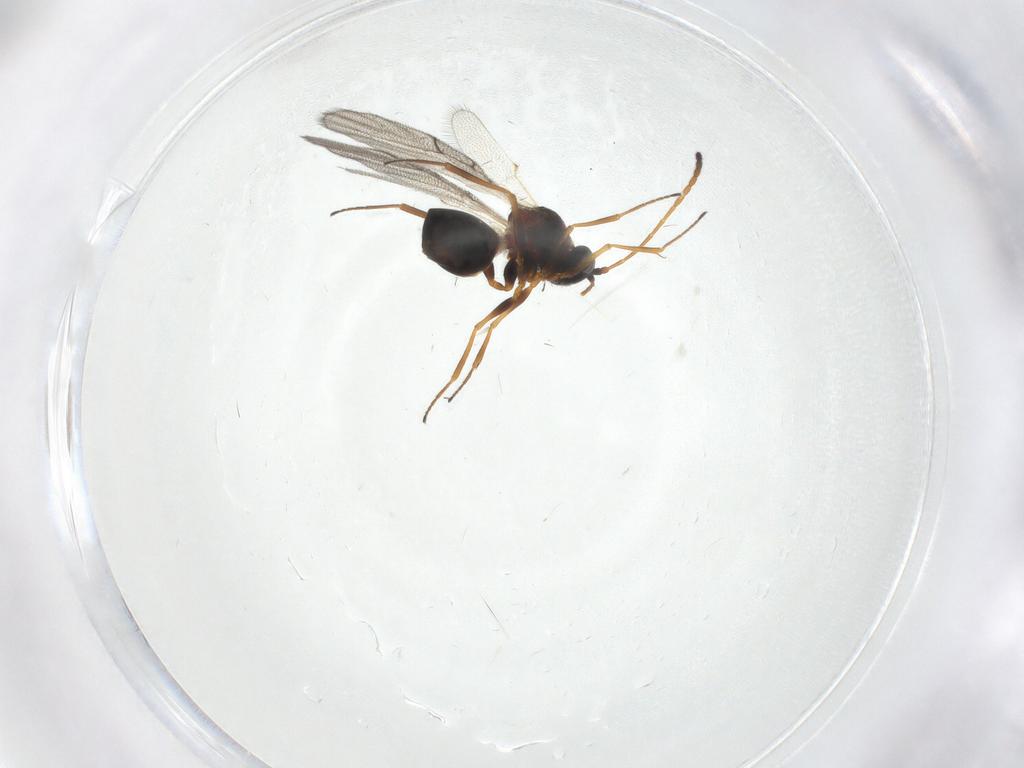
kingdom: Animalia
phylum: Arthropoda
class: Insecta
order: Hymenoptera
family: Figitidae
